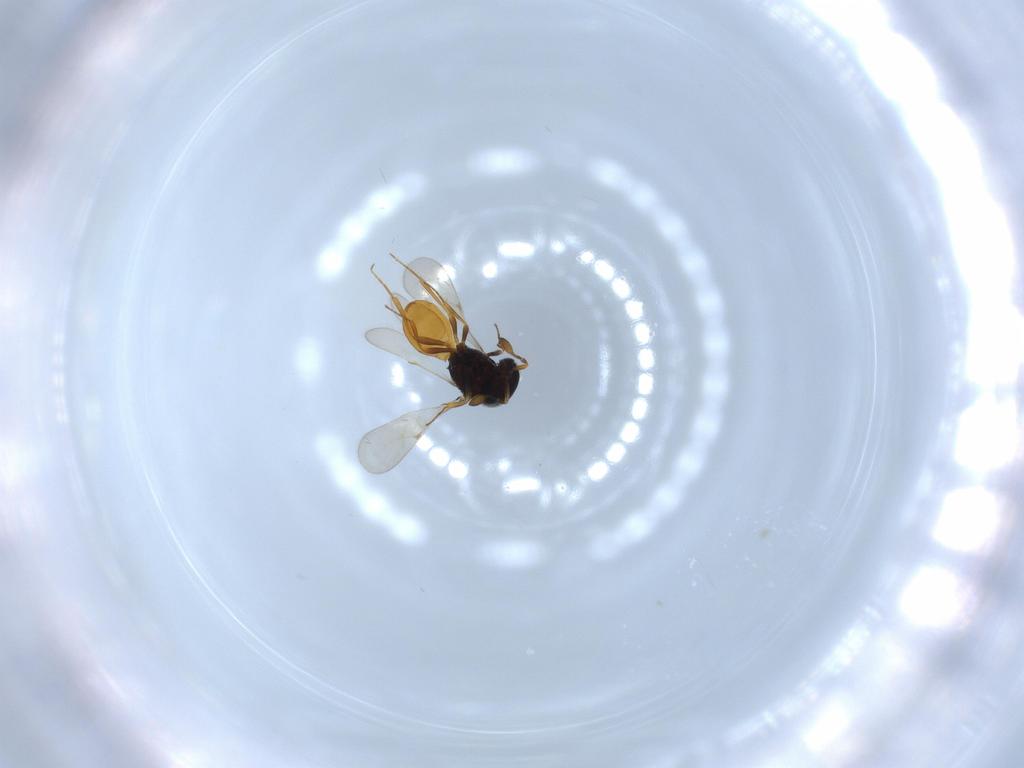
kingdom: Animalia
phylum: Arthropoda
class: Insecta
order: Hymenoptera
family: Scelionidae
